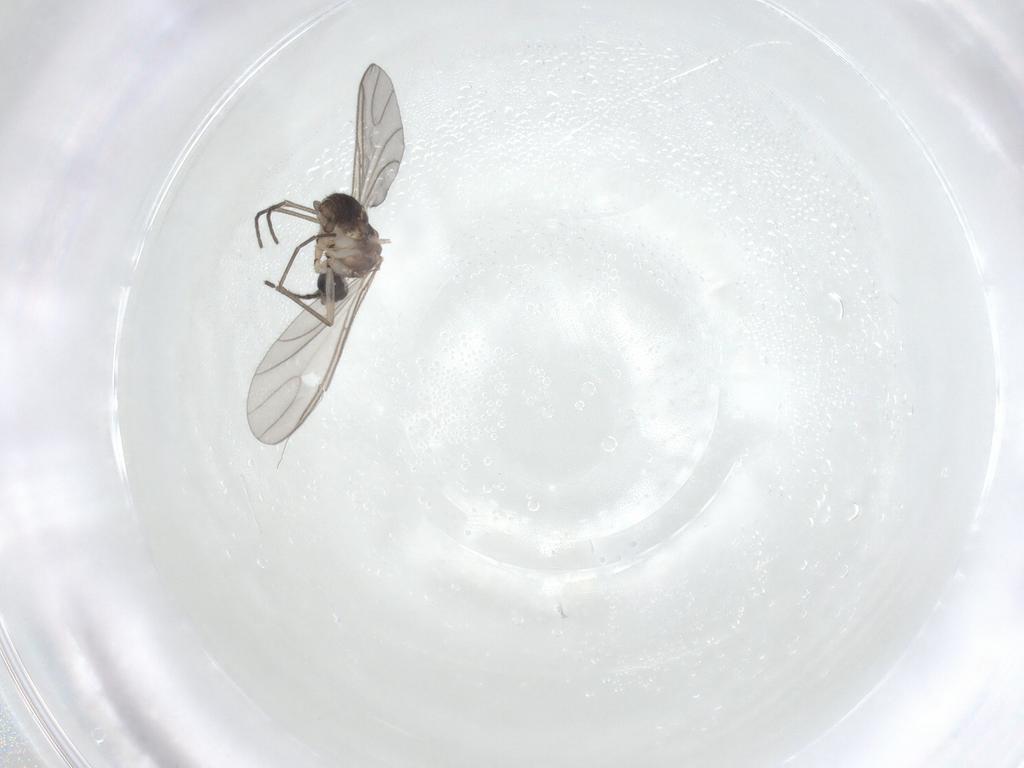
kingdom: Animalia
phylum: Arthropoda
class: Insecta
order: Diptera
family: Sciaridae
